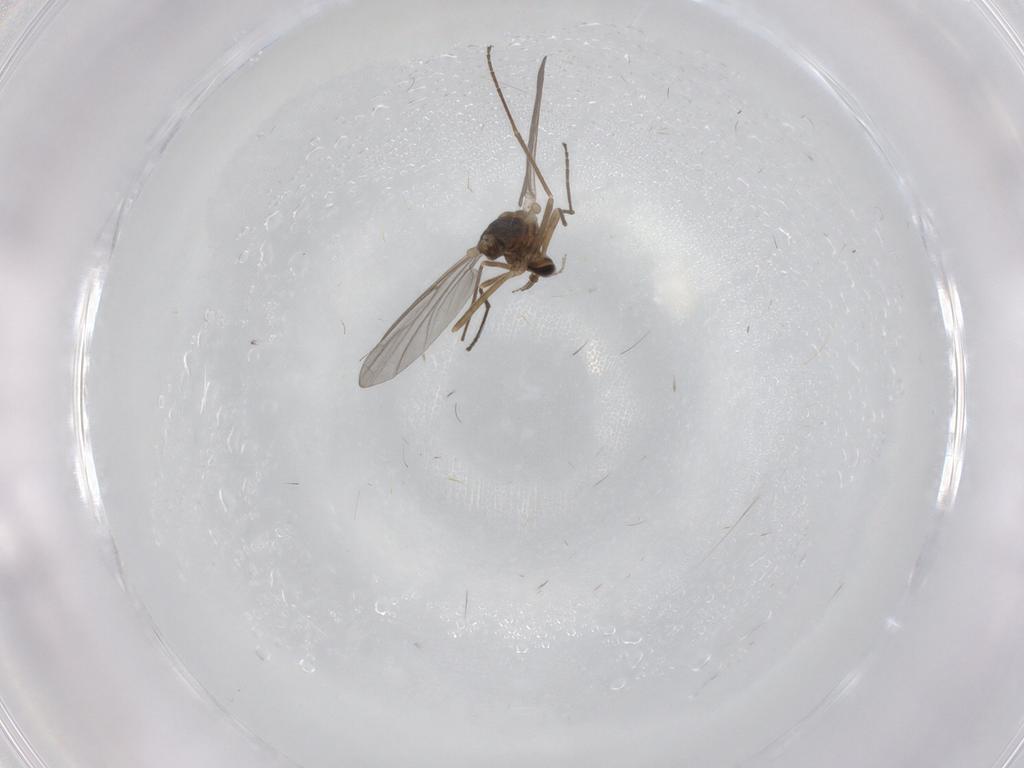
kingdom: Animalia
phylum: Arthropoda
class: Insecta
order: Diptera
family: Cecidomyiidae
